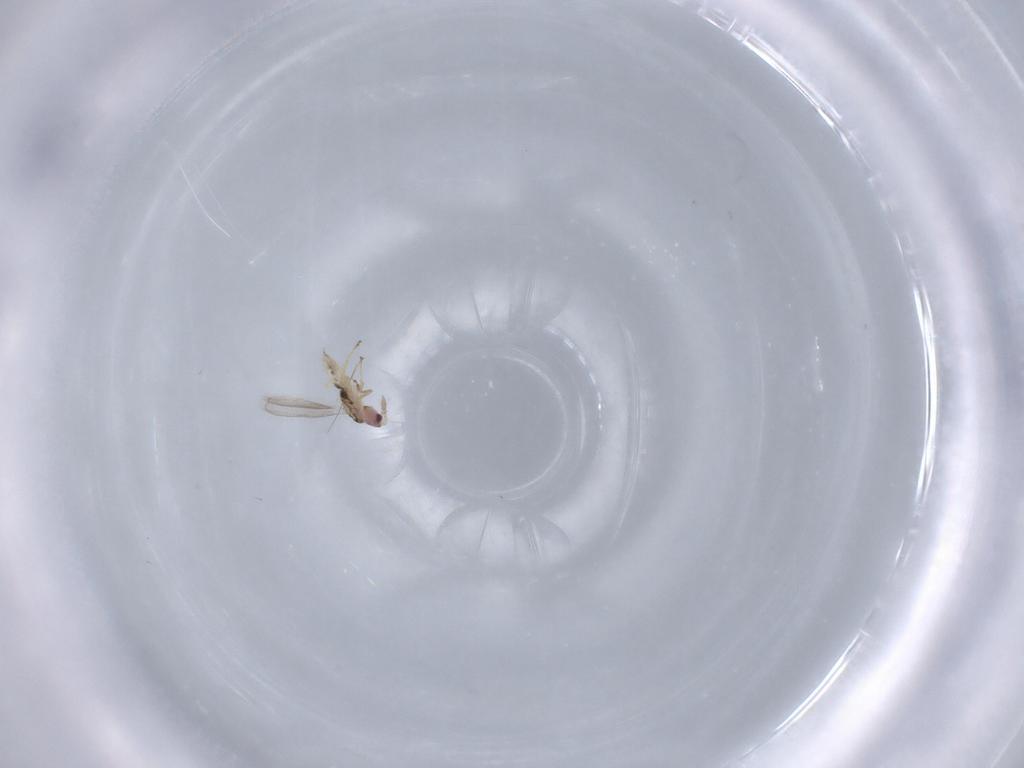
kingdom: Animalia
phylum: Arthropoda
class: Insecta
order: Hymenoptera
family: Eulophidae
